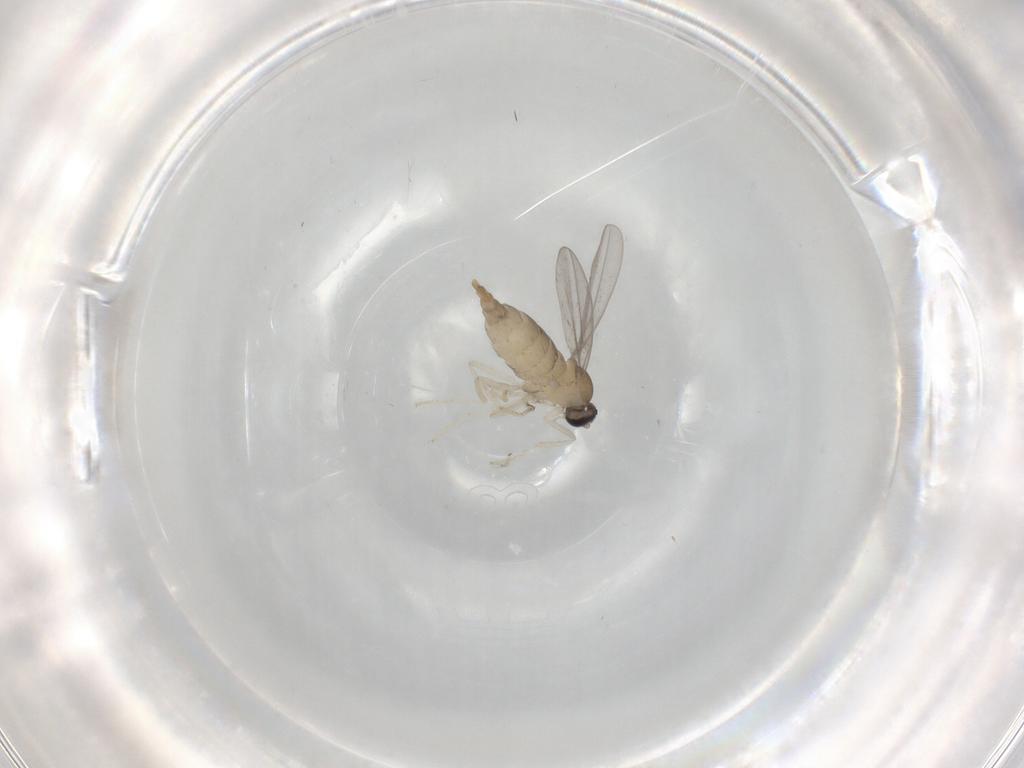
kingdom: Animalia
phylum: Arthropoda
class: Insecta
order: Diptera
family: Cecidomyiidae
